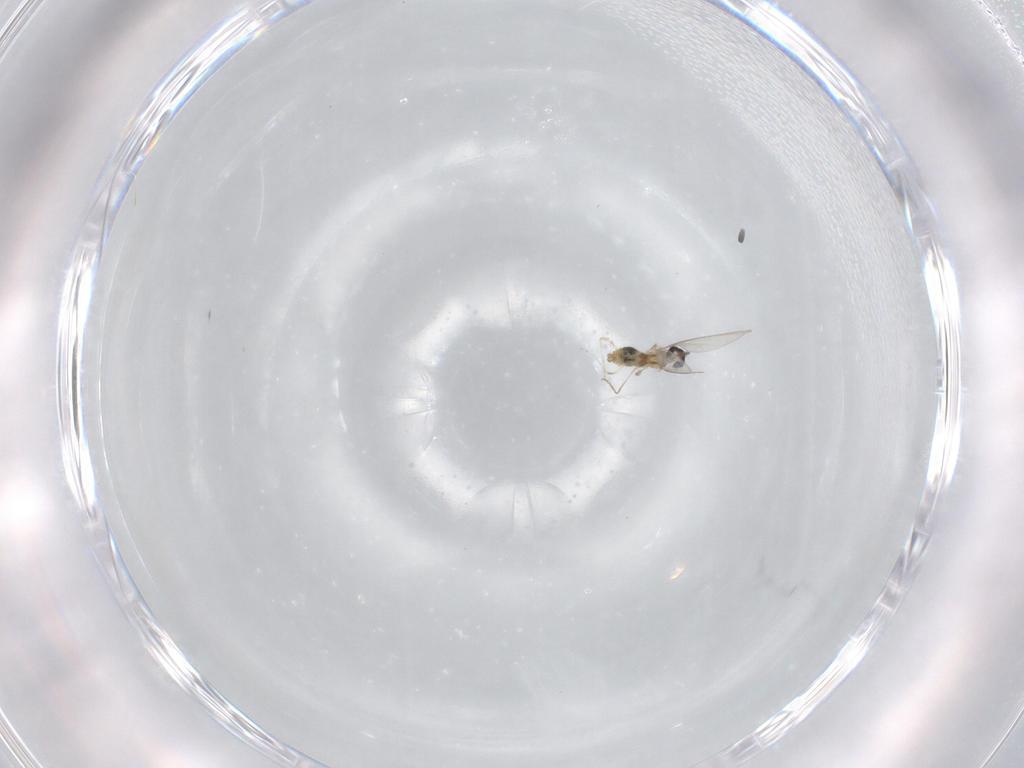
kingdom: Animalia
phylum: Arthropoda
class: Insecta
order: Diptera
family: Cecidomyiidae
